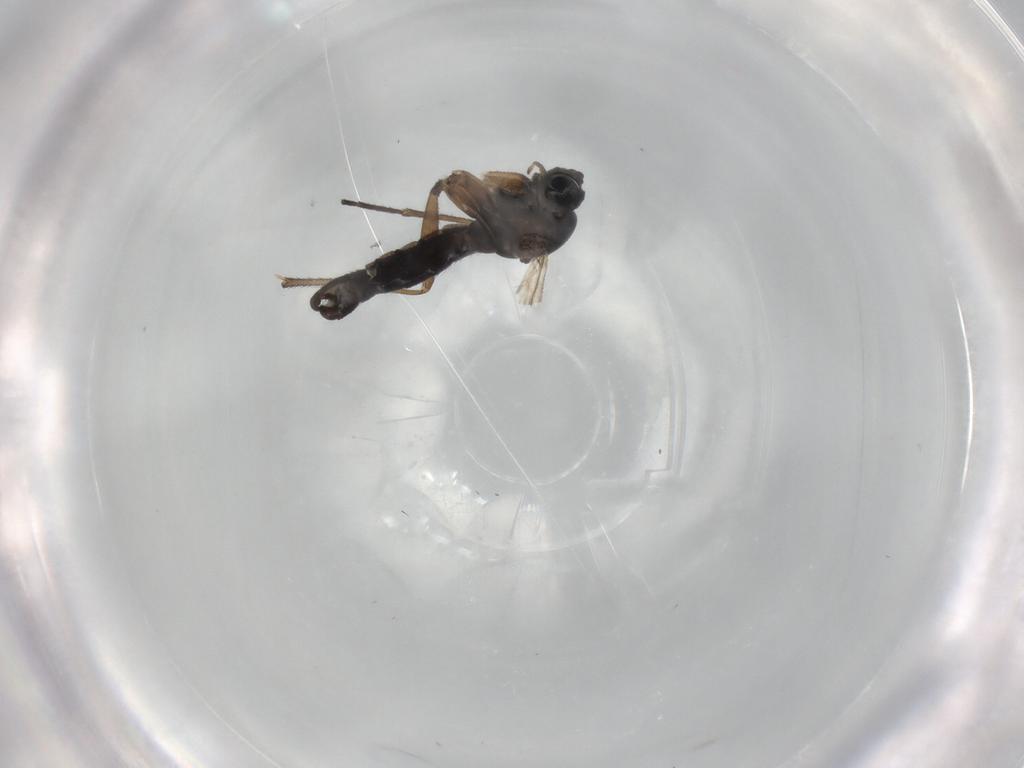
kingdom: Animalia
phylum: Arthropoda
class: Insecta
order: Diptera
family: Sciaridae
